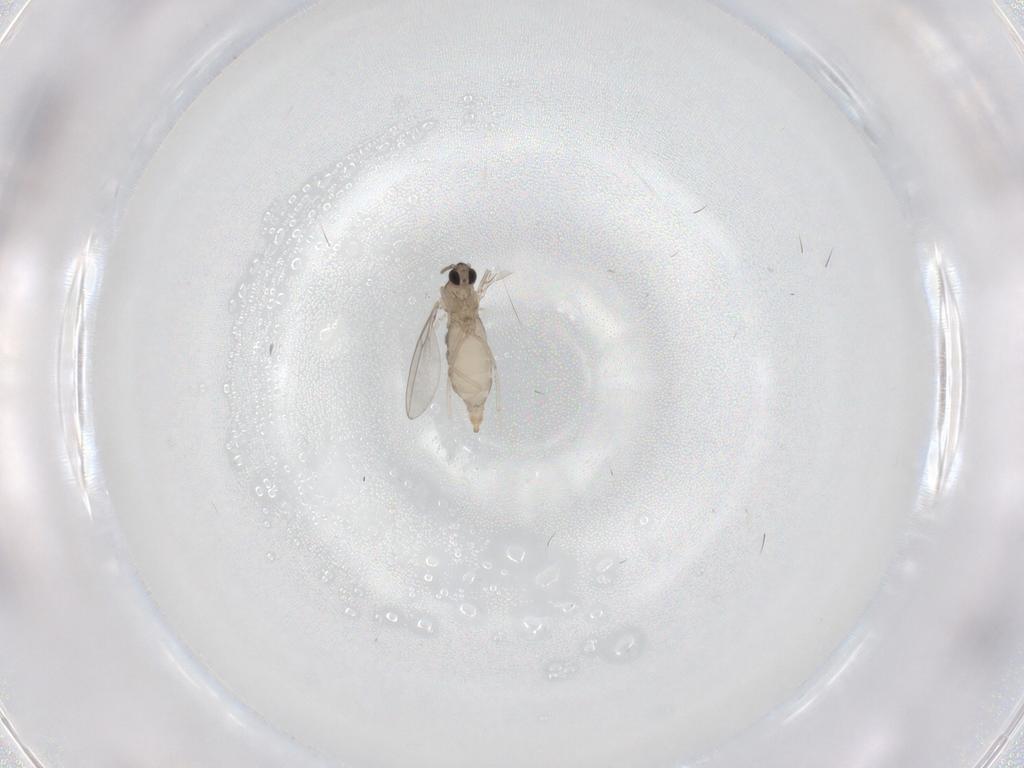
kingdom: Animalia
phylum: Arthropoda
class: Insecta
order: Diptera
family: Cecidomyiidae
